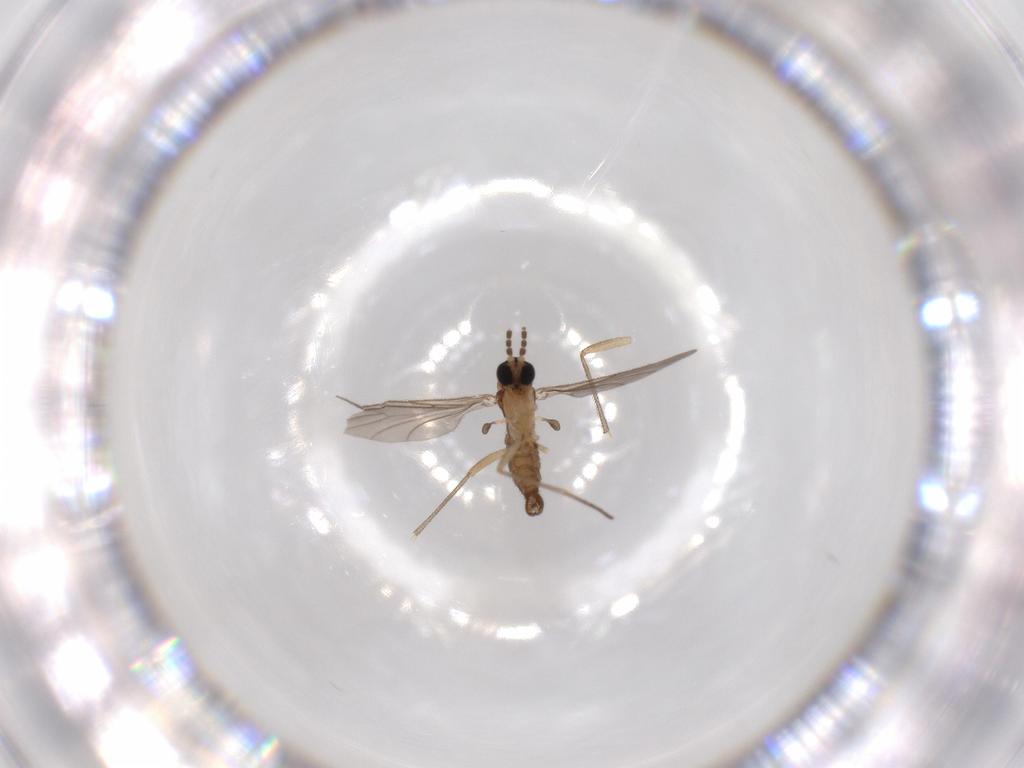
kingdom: Animalia
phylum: Arthropoda
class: Insecta
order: Diptera
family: Sciaridae
